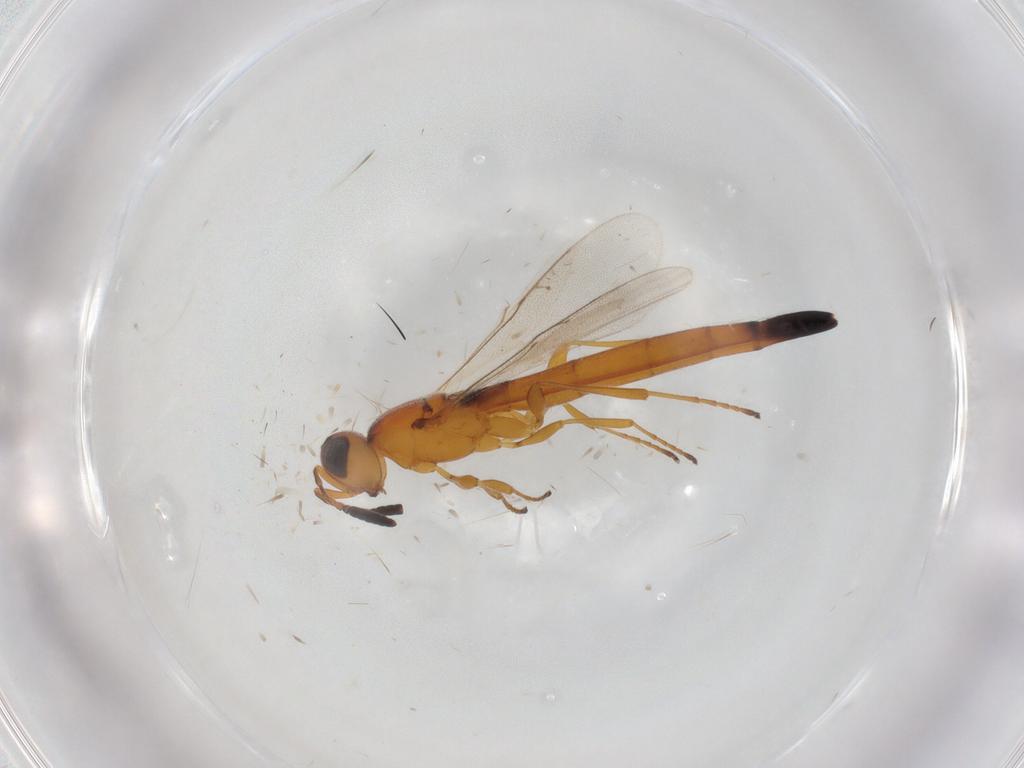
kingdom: Animalia
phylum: Arthropoda
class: Insecta
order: Hymenoptera
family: Scelionidae
